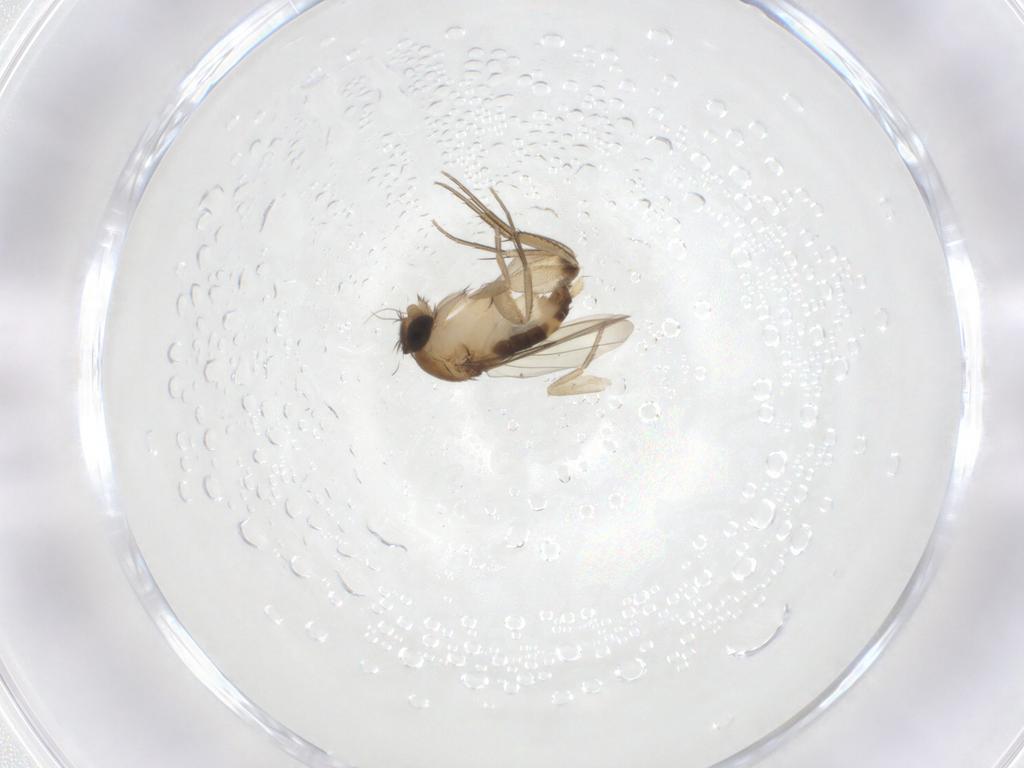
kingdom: Animalia
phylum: Arthropoda
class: Insecta
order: Diptera
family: Phoridae
